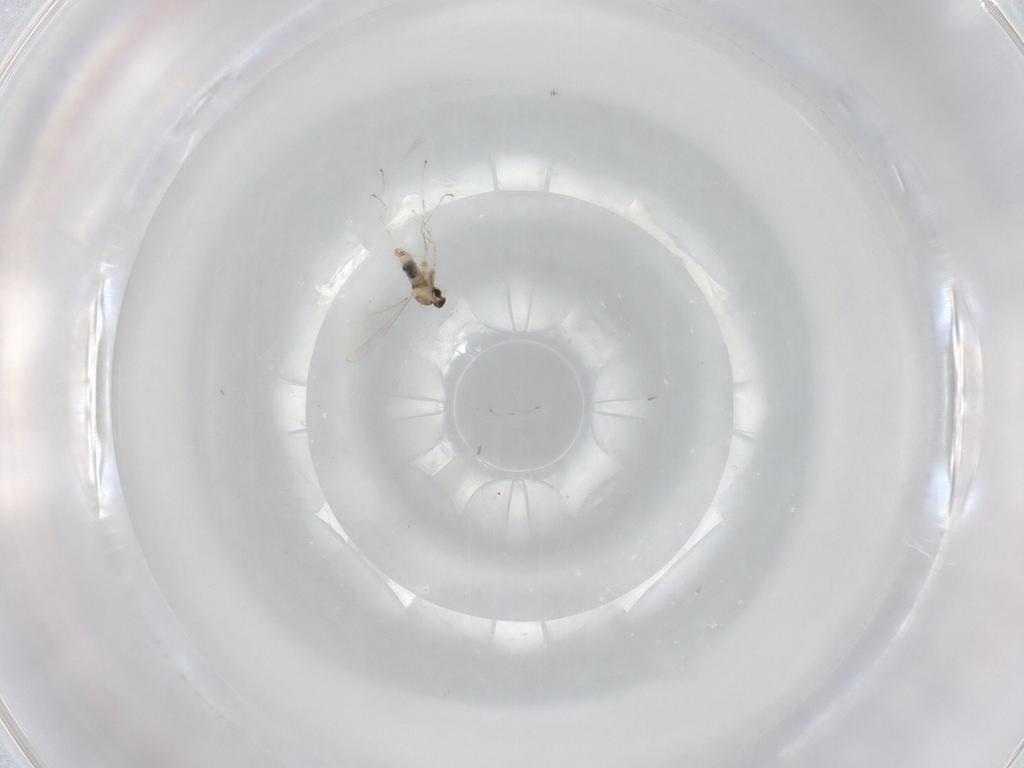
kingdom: Animalia
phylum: Arthropoda
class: Insecta
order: Diptera
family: Cecidomyiidae
